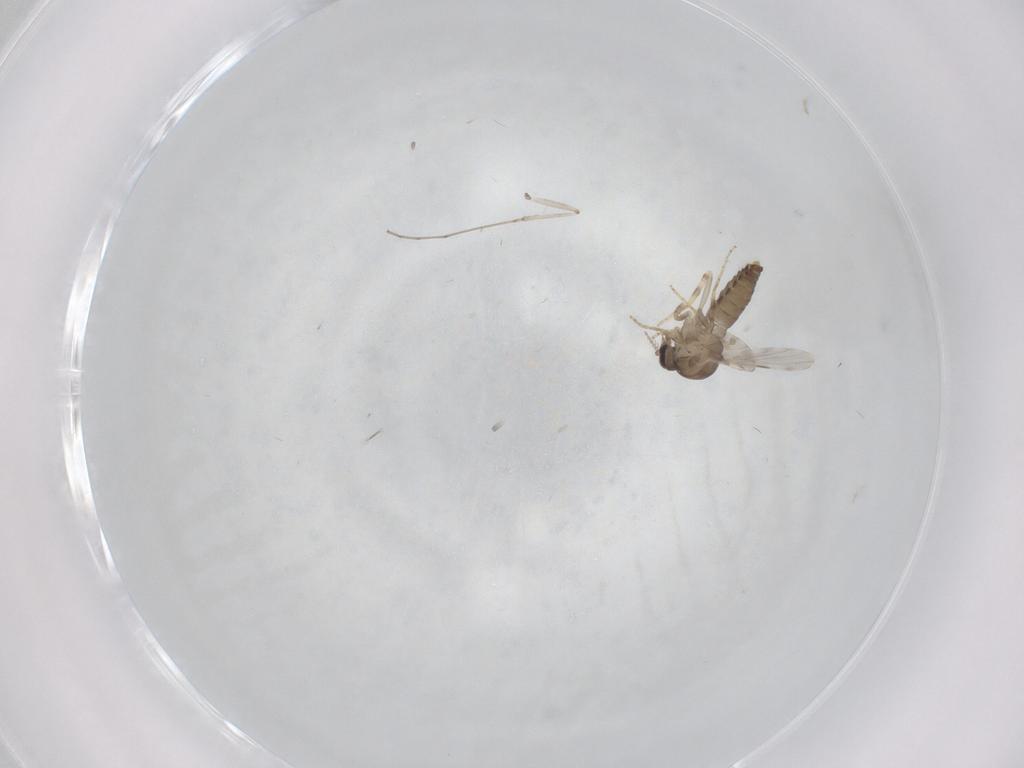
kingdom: Animalia
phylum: Arthropoda
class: Insecta
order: Diptera
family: Ceratopogonidae
